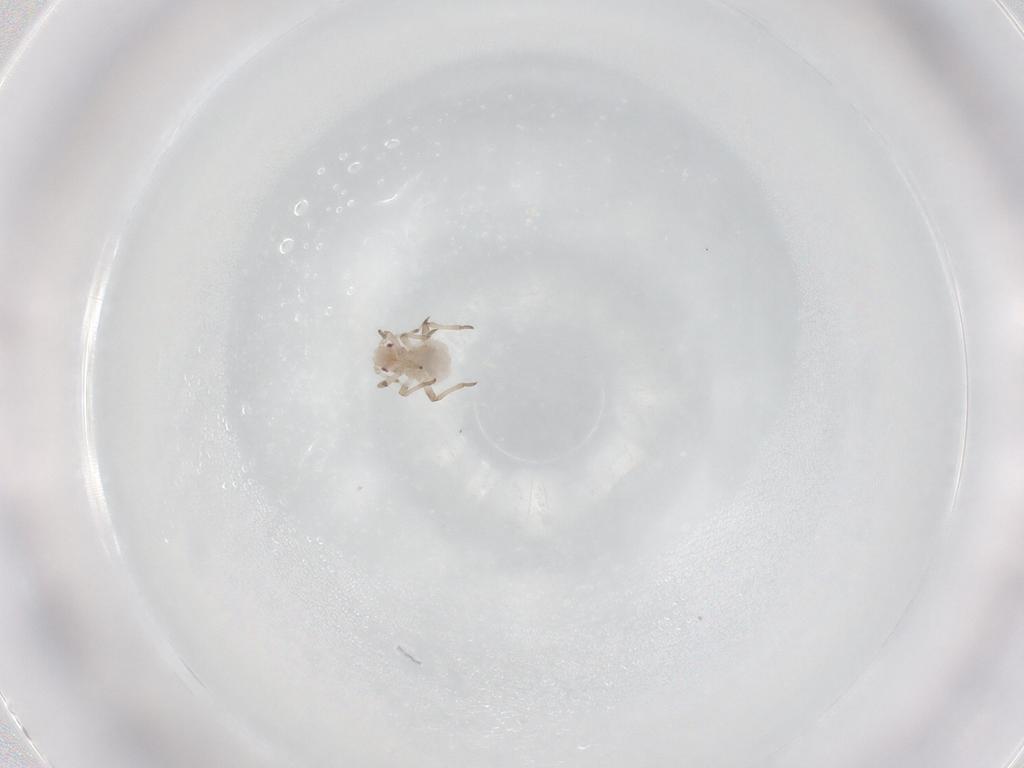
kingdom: Animalia
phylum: Arthropoda
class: Insecta
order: Hemiptera
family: Aphididae
